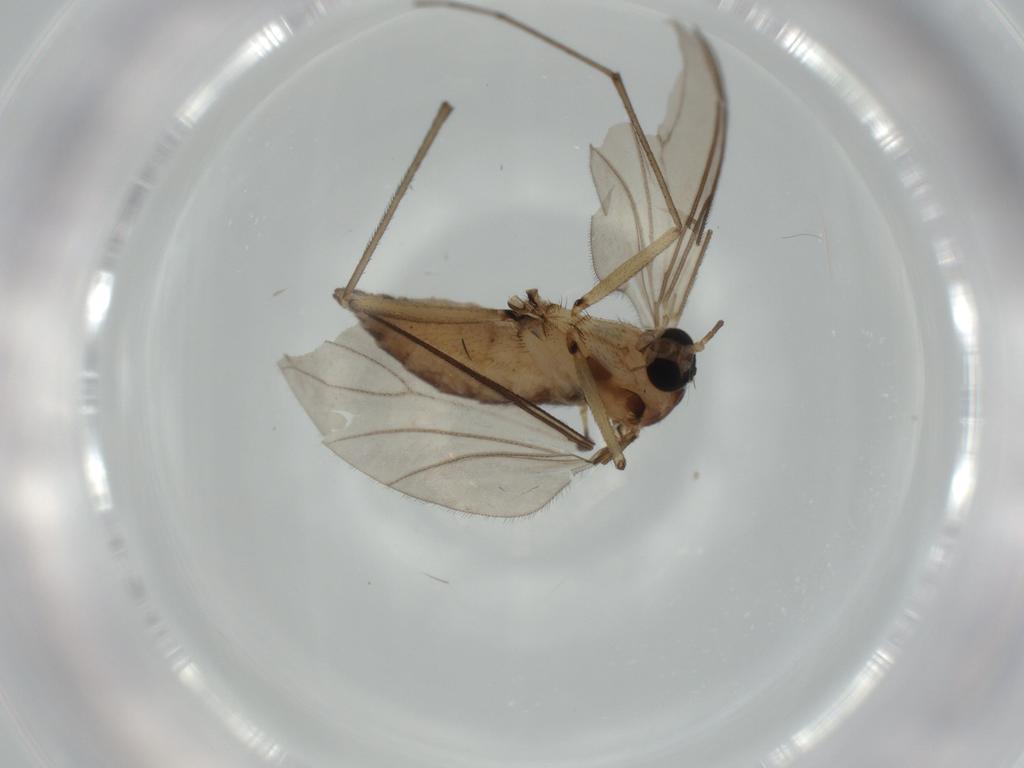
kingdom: Animalia
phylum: Arthropoda
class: Insecta
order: Diptera
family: Sciaridae
